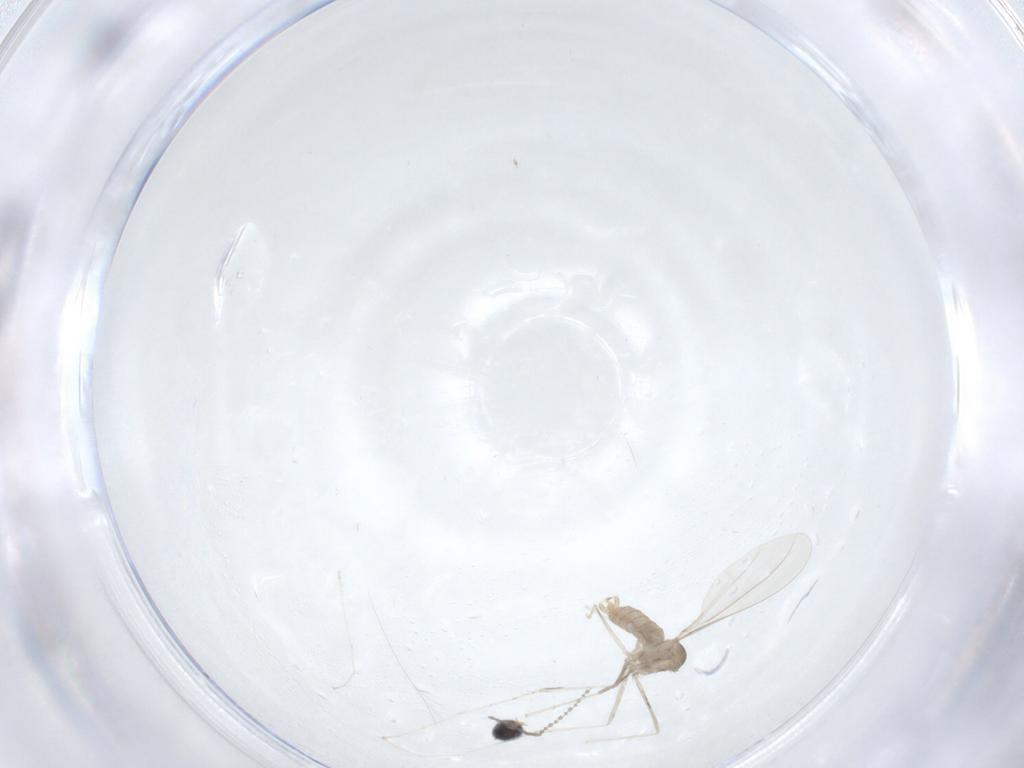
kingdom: Animalia
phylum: Arthropoda
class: Insecta
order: Diptera
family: Cecidomyiidae
